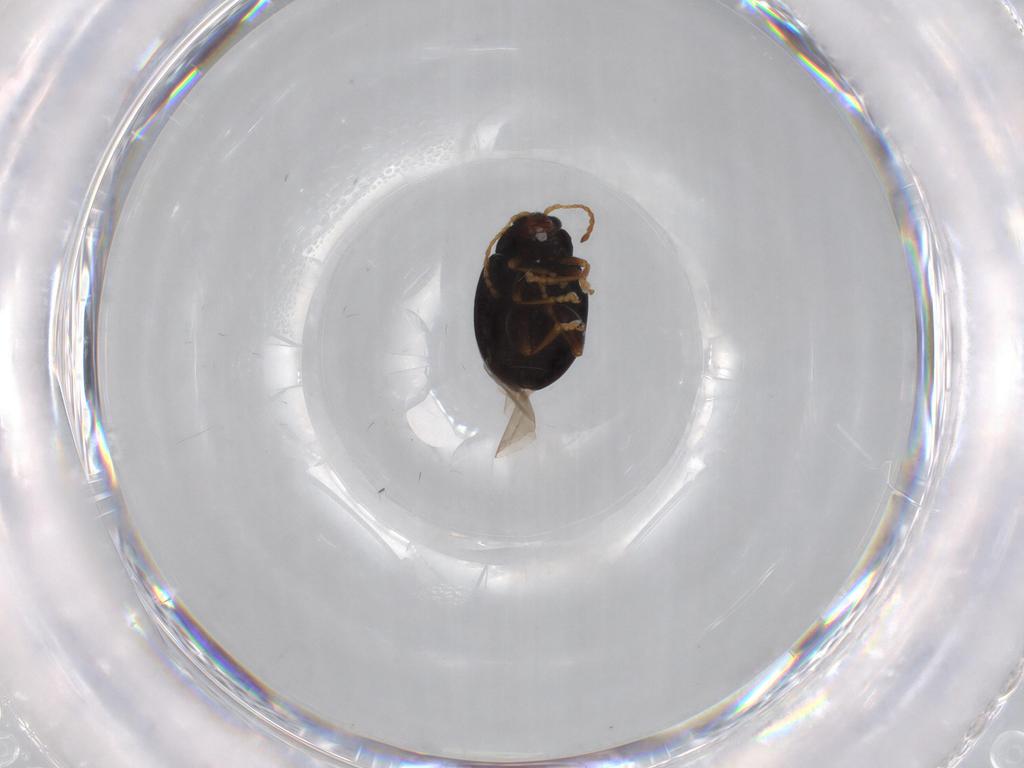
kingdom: Animalia
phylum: Arthropoda
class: Insecta
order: Coleoptera
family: Chrysomelidae
